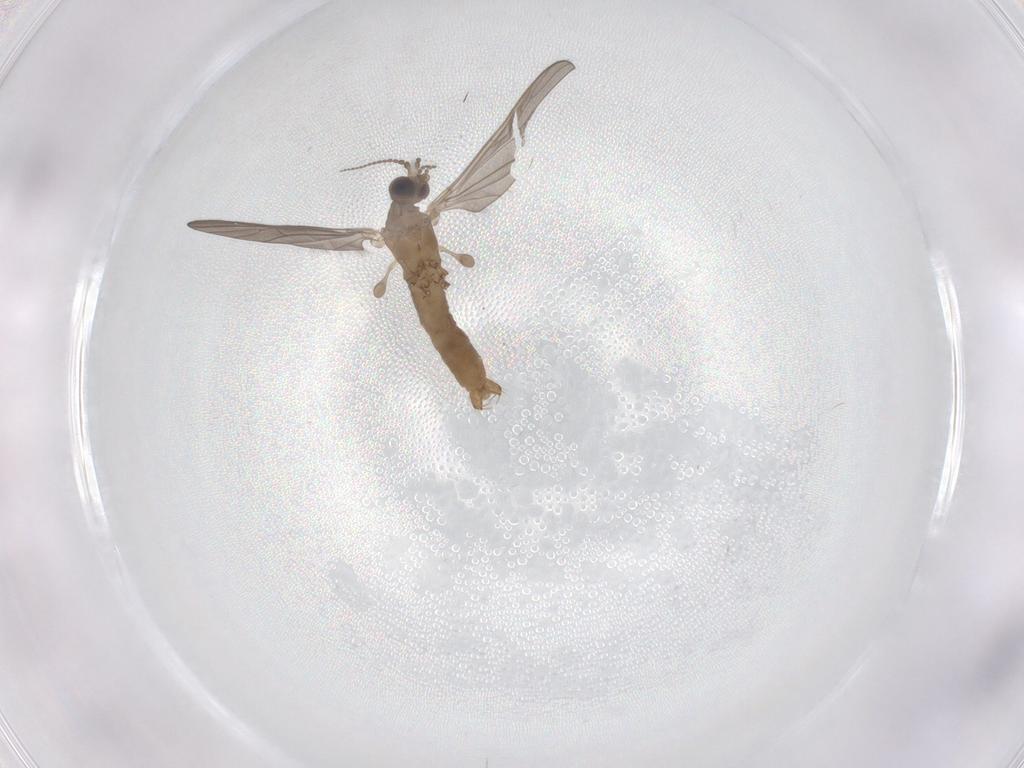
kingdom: Animalia
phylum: Arthropoda
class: Insecta
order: Diptera
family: Limoniidae
